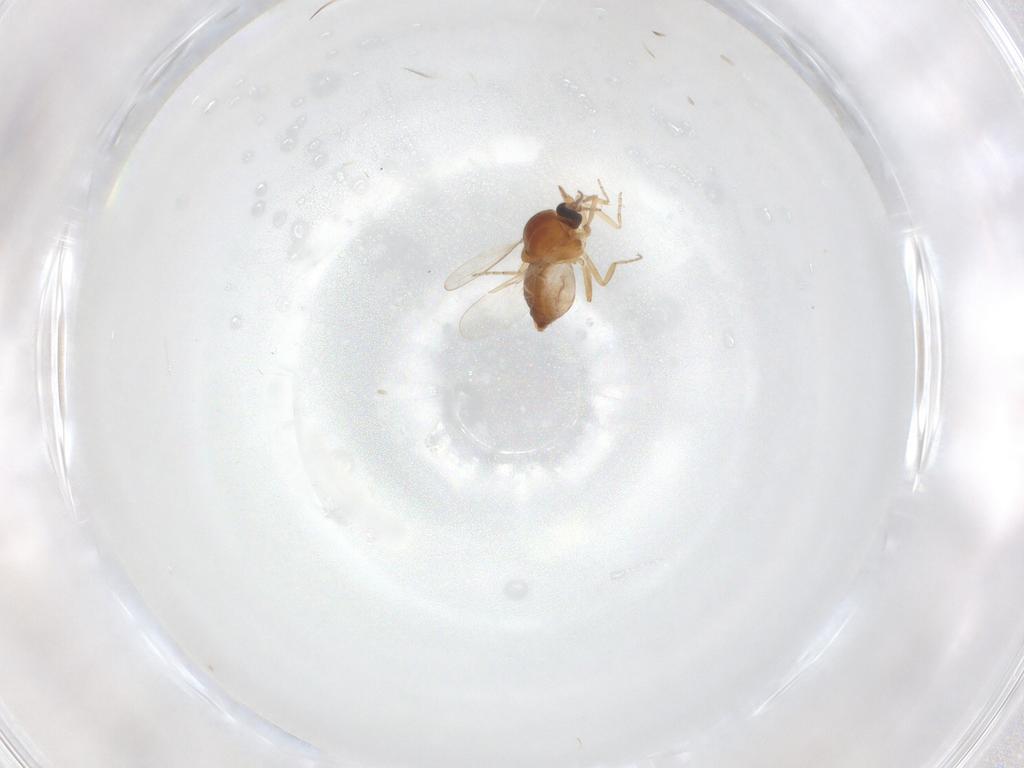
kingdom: Animalia
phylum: Arthropoda
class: Insecta
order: Diptera
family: Ceratopogonidae
